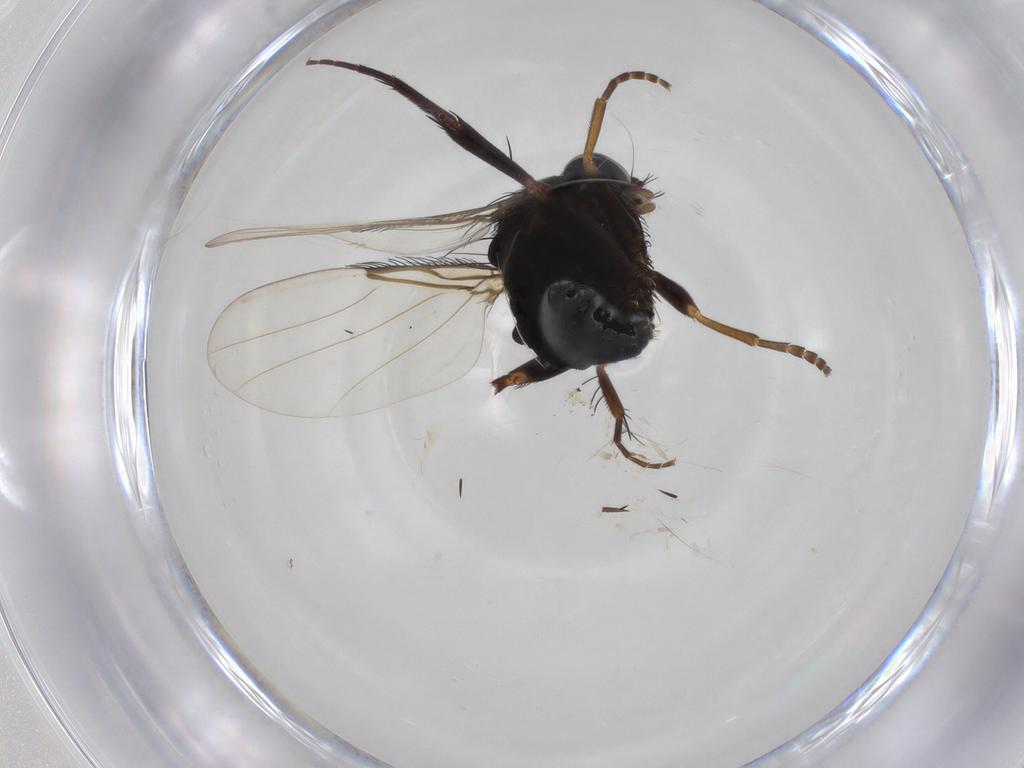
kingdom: Animalia
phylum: Arthropoda
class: Insecta
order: Diptera
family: Phoridae
